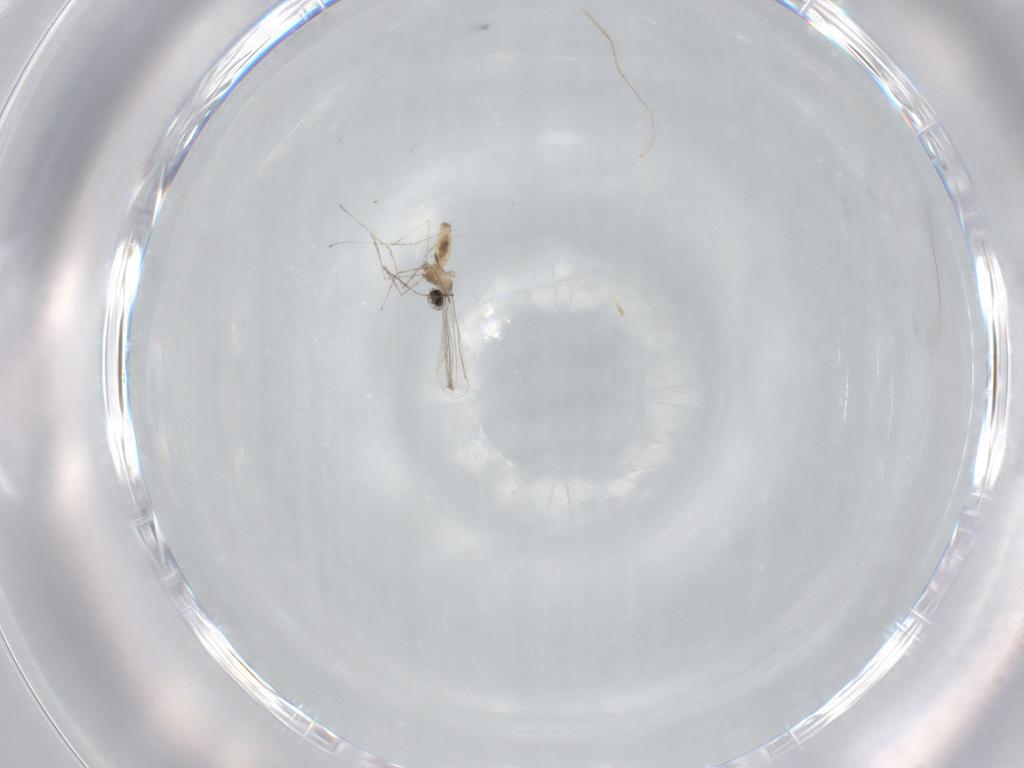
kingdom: Animalia
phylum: Arthropoda
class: Insecta
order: Diptera
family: Cecidomyiidae
